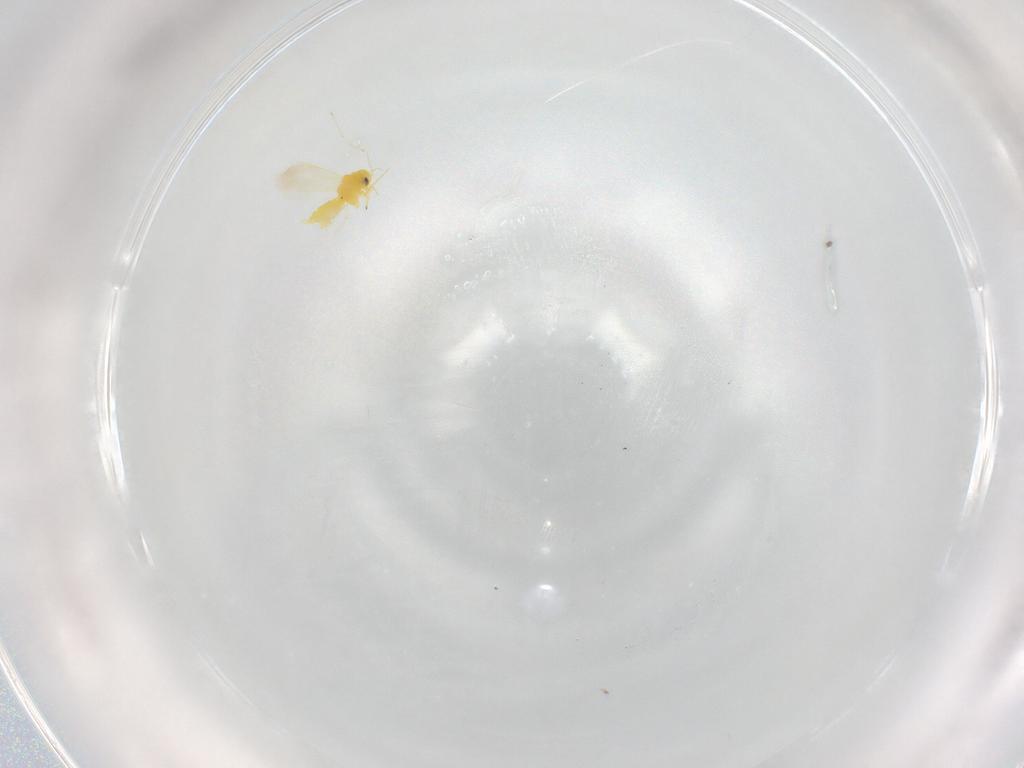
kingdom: Animalia
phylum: Arthropoda
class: Insecta
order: Hemiptera
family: Aleyrodidae
